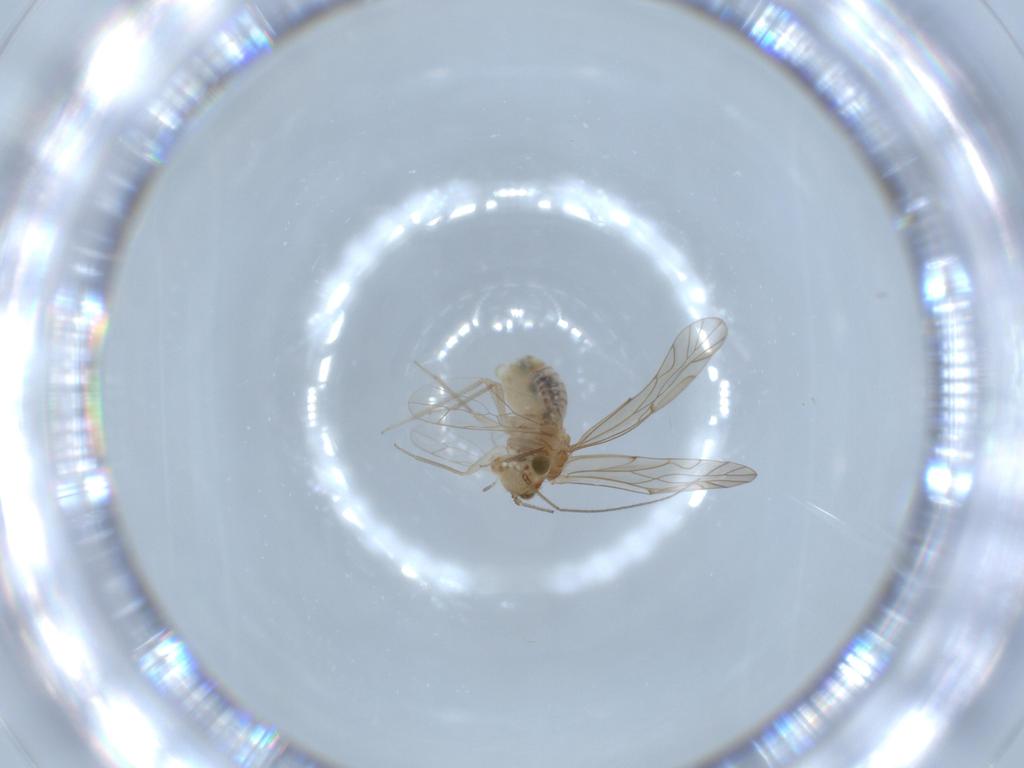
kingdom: Animalia
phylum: Arthropoda
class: Insecta
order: Psocodea
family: Lachesillidae
